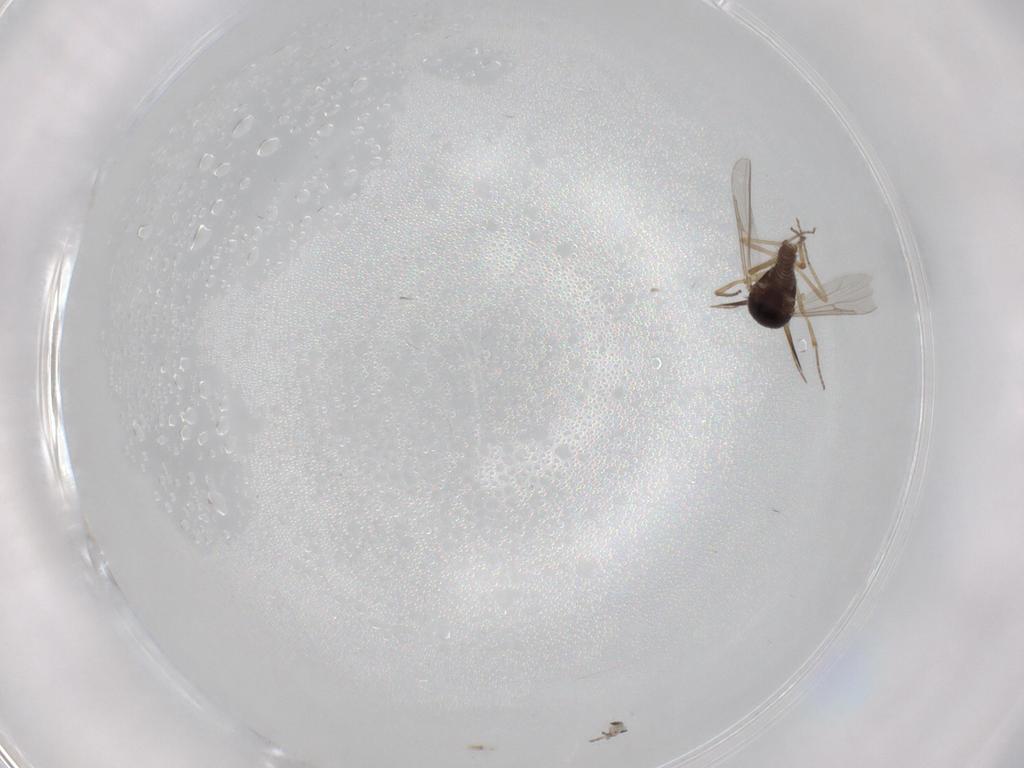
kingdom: Animalia
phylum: Arthropoda
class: Insecta
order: Diptera
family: Ceratopogonidae
